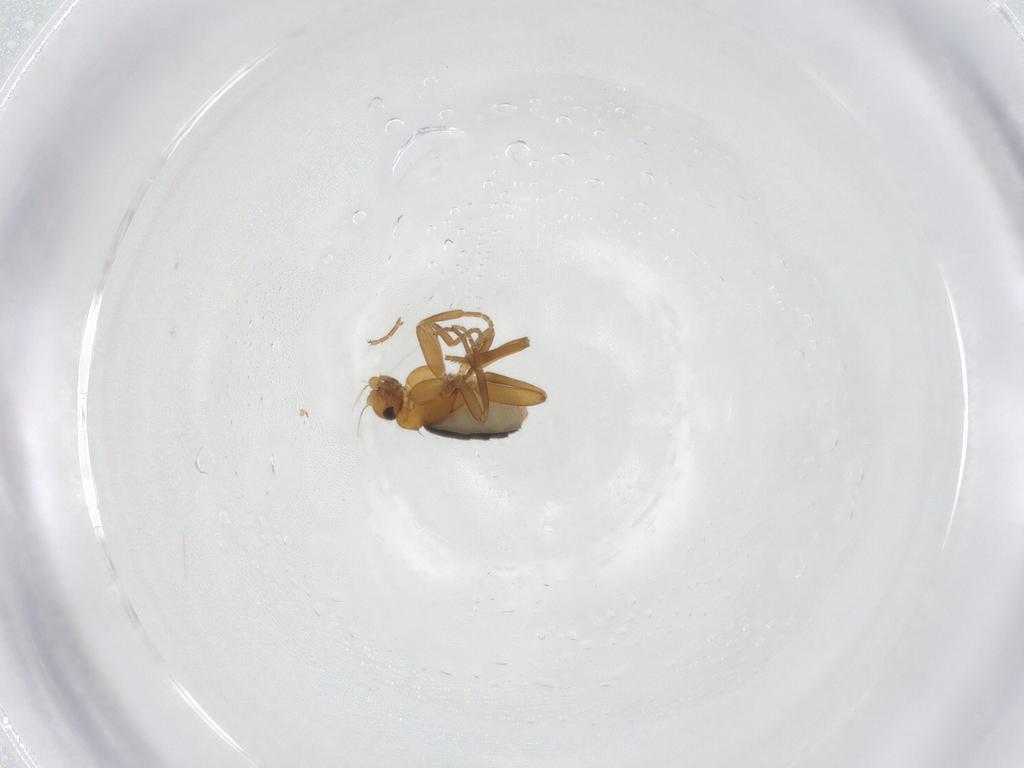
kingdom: Animalia
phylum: Arthropoda
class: Insecta
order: Diptera
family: Phoridae
